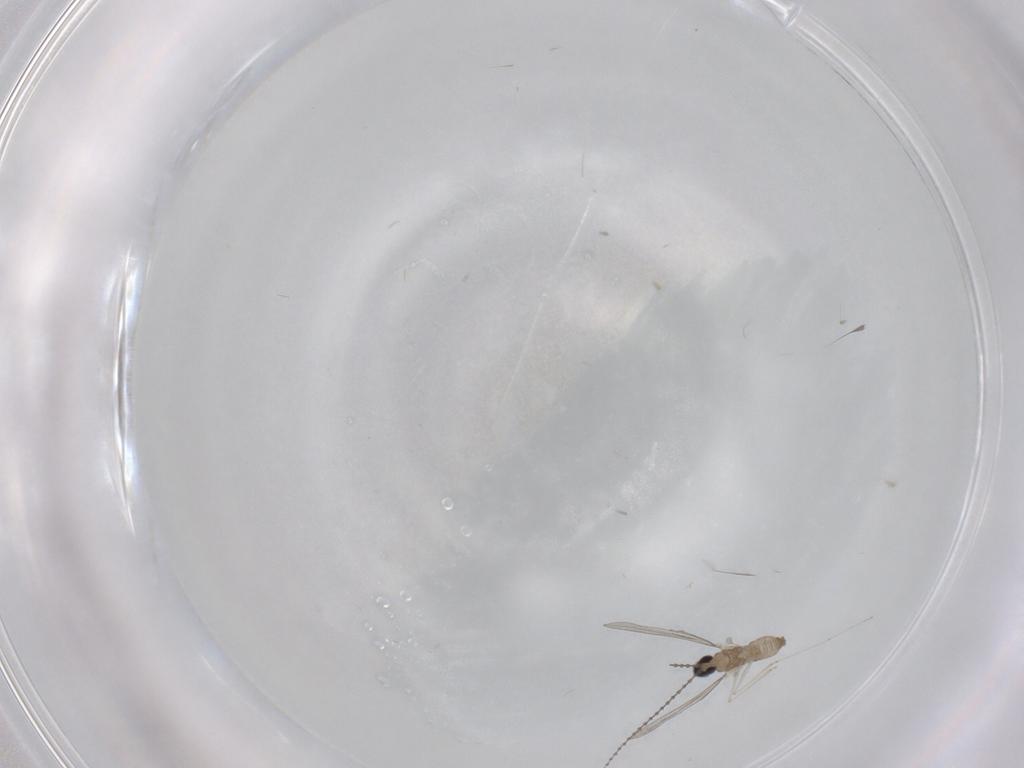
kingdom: Animalia
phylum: Arthropoda
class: Insecta
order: Diptera
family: Cecidomyiidae
